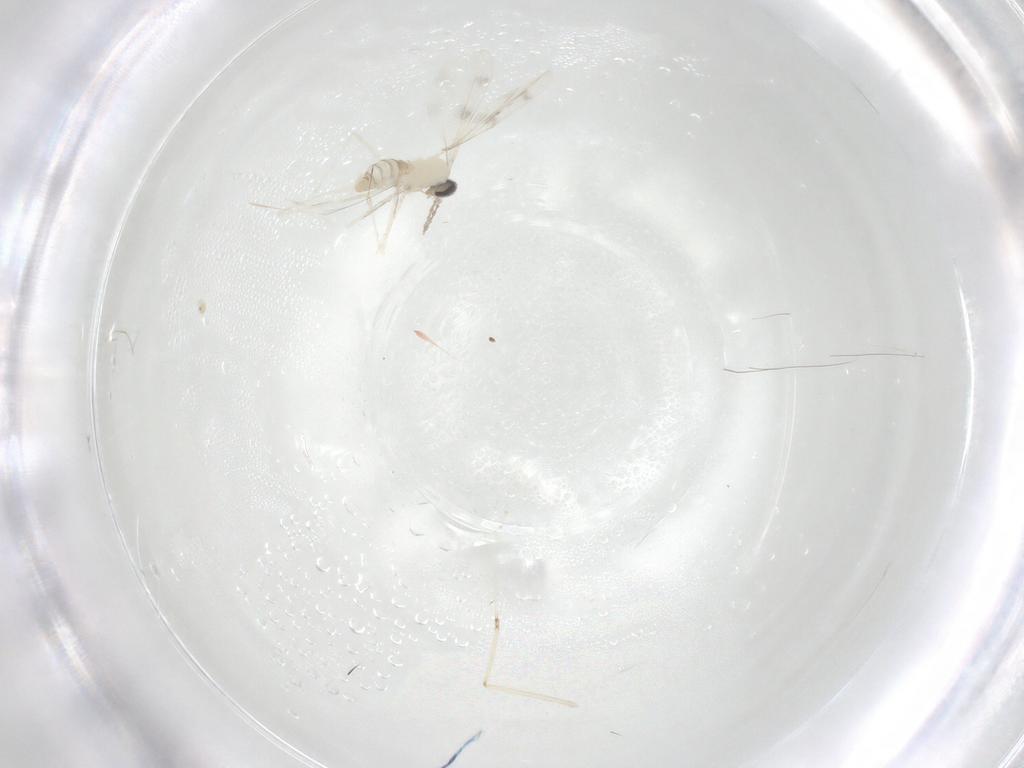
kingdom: Animalia
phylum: Arthropoda
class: Insecta
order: Diptera
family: Cecidomyiidae
